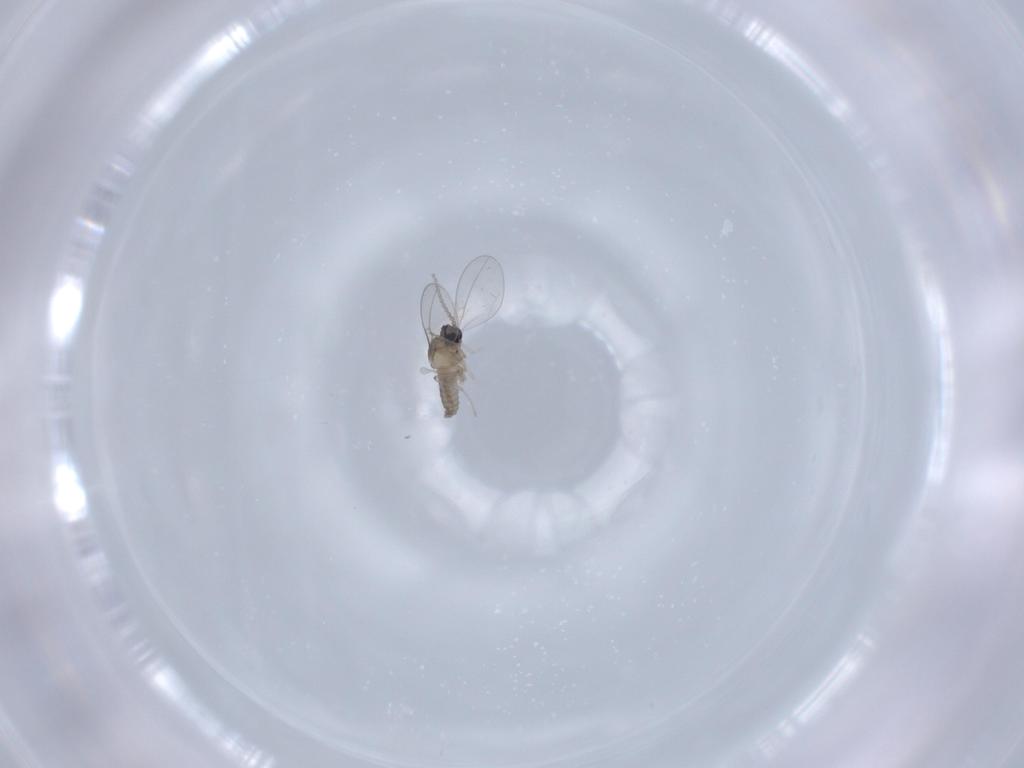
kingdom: Animalia
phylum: Arthropoda
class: Insecta
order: Diptera
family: Cecidomyiidae
